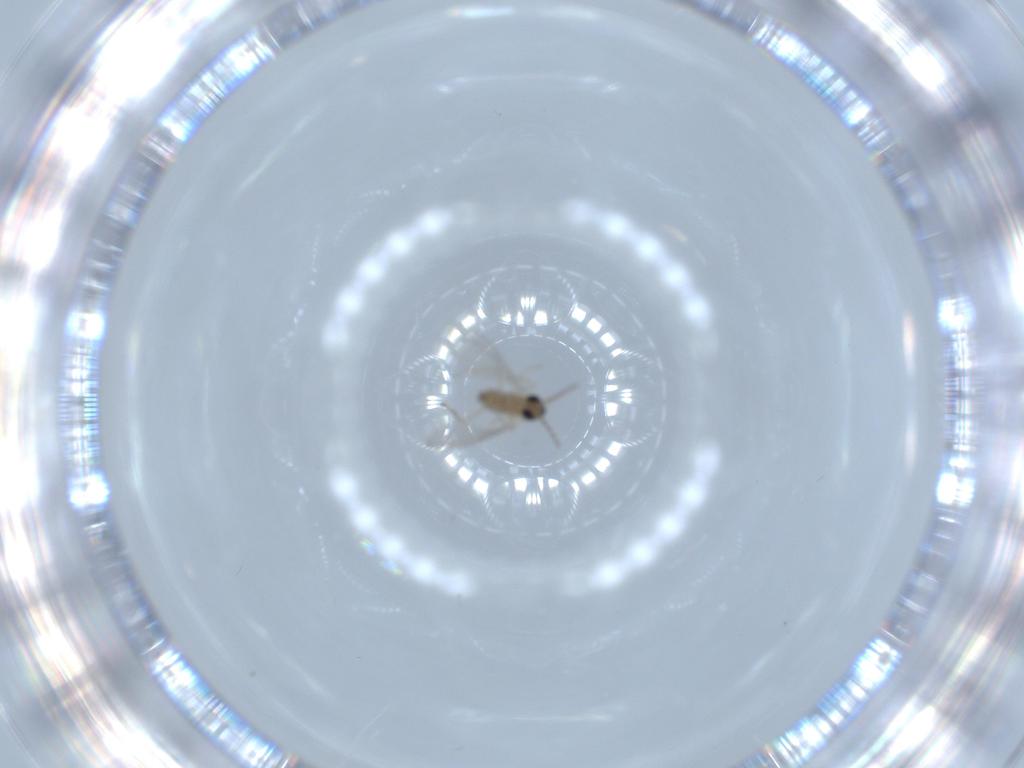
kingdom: Animalia
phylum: Arthropoda
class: Insecta
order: Diptera
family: Cecidomyiidae
